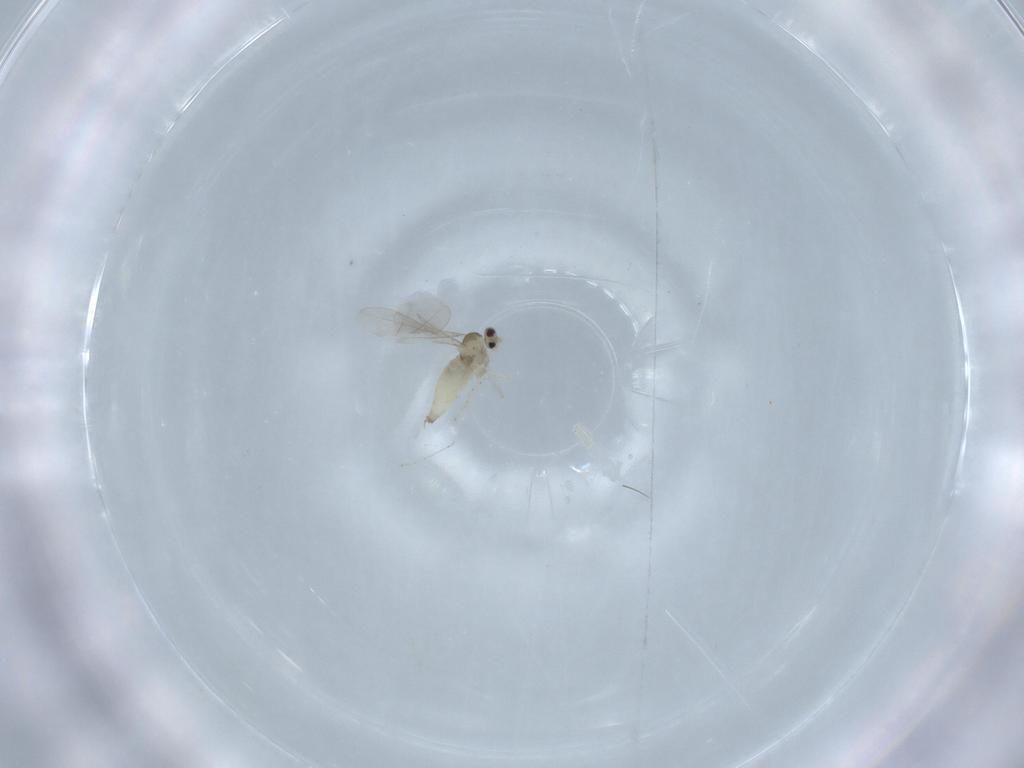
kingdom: Animalia
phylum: Arthropoda
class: Insecta
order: Diptera
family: Cecidomyiidae
